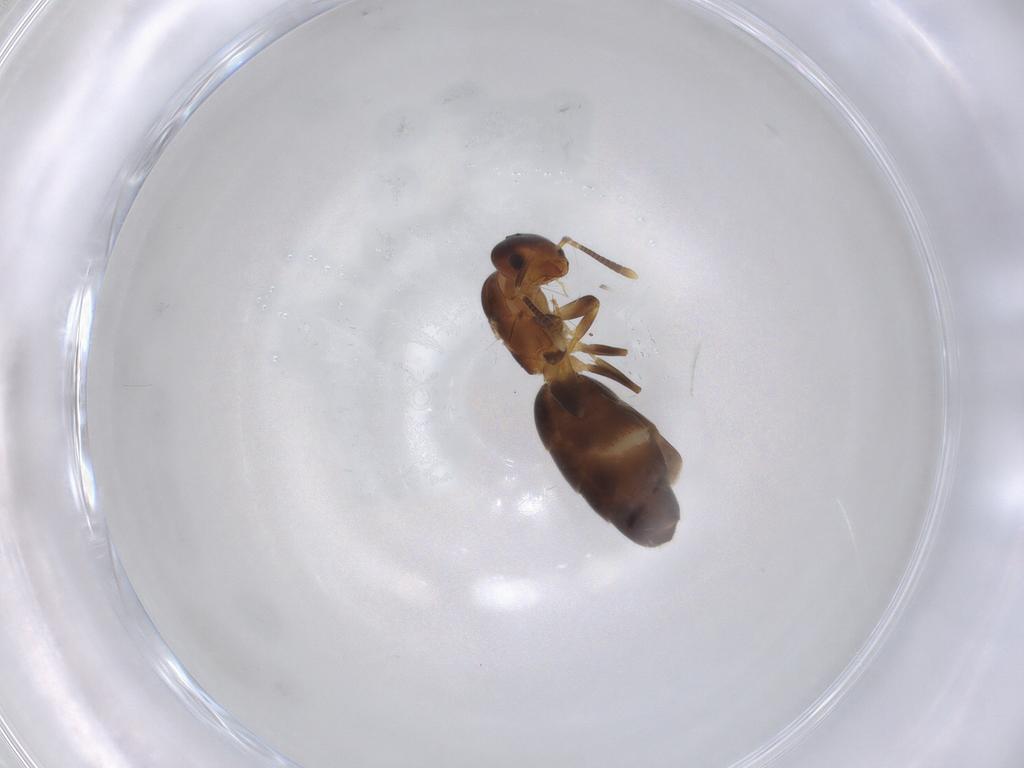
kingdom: Animalia
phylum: Arthropoda
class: Insecta
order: Hymenoptera
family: Formicidae
